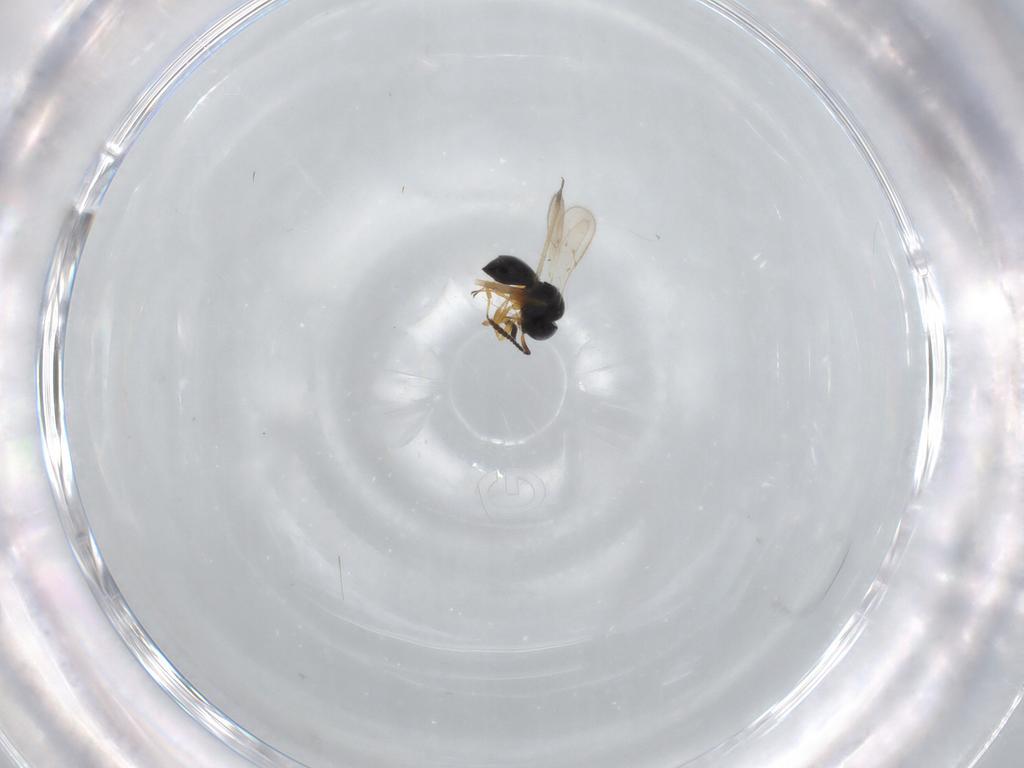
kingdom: Animalia
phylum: Arthropoda
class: Insecta
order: Hymenoptera
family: Scelionidae
